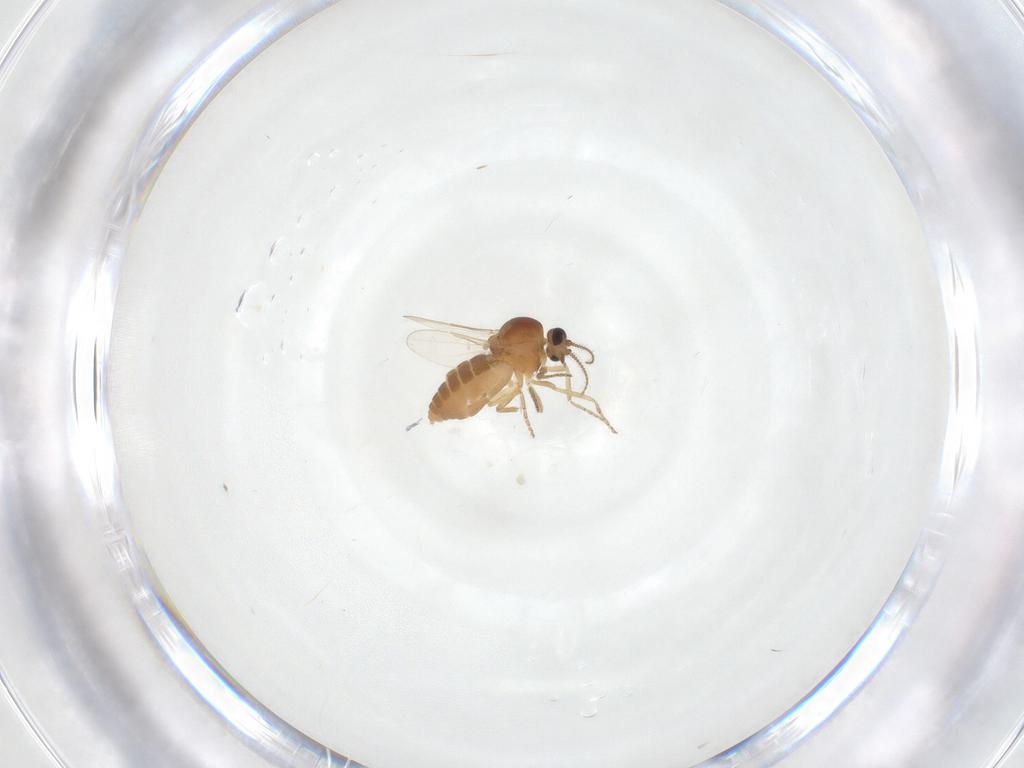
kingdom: Animalia
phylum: Arthropoda
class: Insecta
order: Diptera
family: Ceratopogonidae
